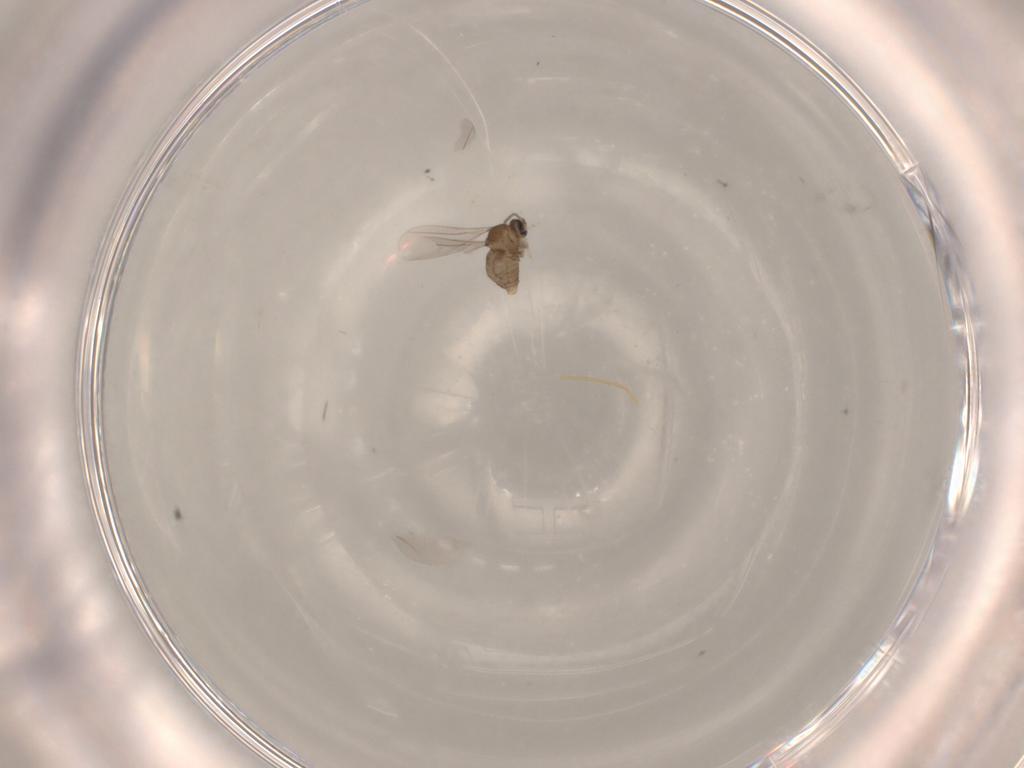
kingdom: Animalia
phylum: Arthropoda
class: Insecta
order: Diptera
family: Cecidomyiidae
